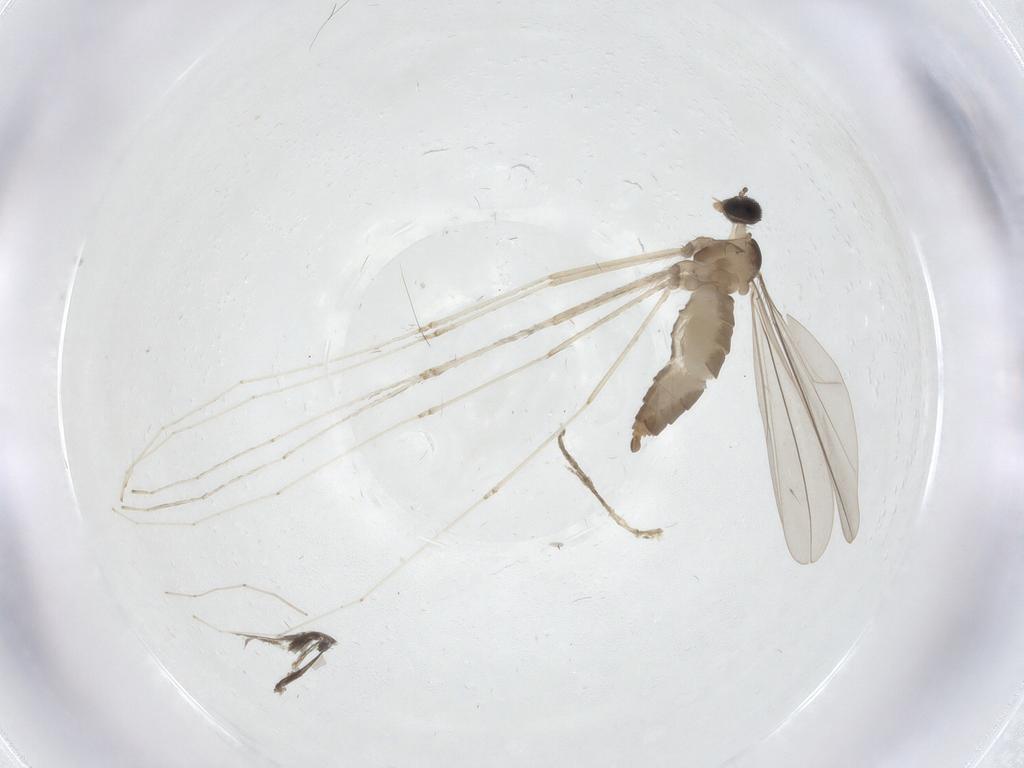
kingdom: Animalia
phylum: Arthropoda
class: Insecta
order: Diptera
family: Cecidomyiidae
